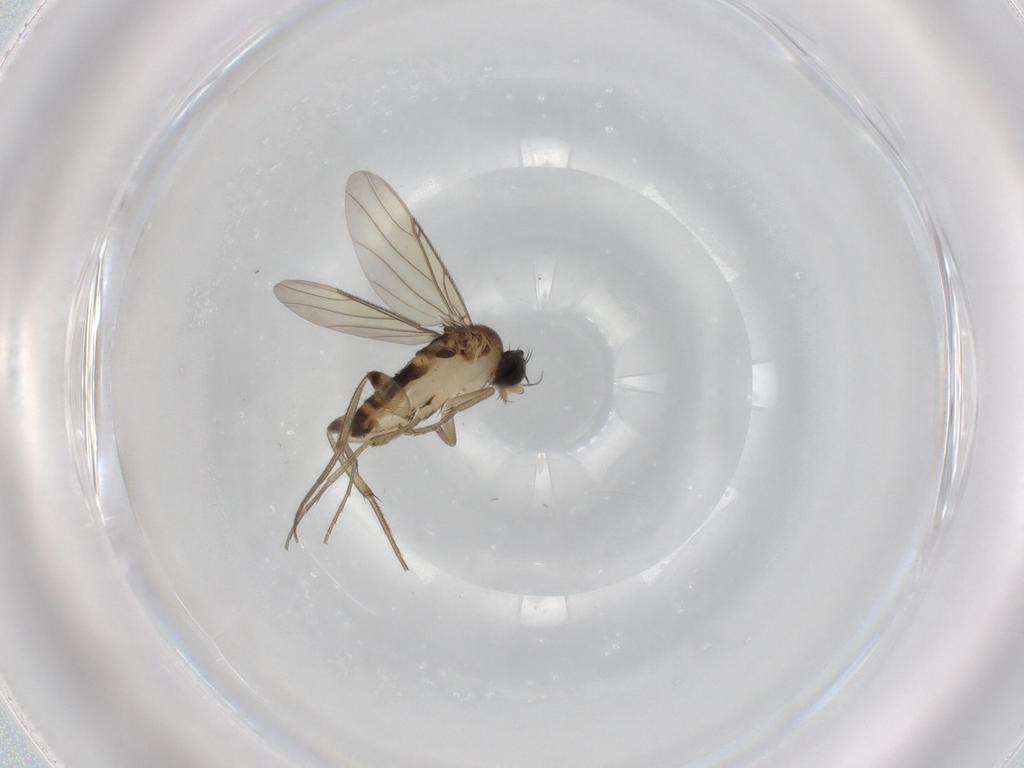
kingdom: Animalia
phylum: Arthropoda
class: Insecta
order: Diptera
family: Phoridae
